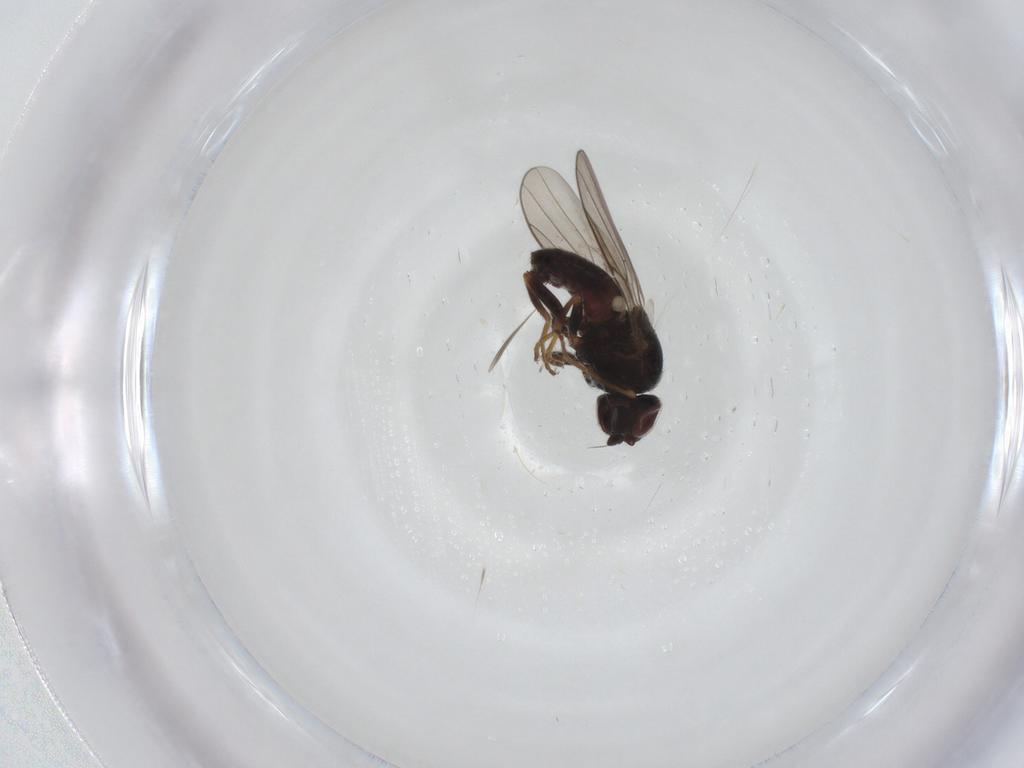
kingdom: Animalia
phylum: Arthropoda
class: Insecta
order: Diptera
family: Chloropidae
